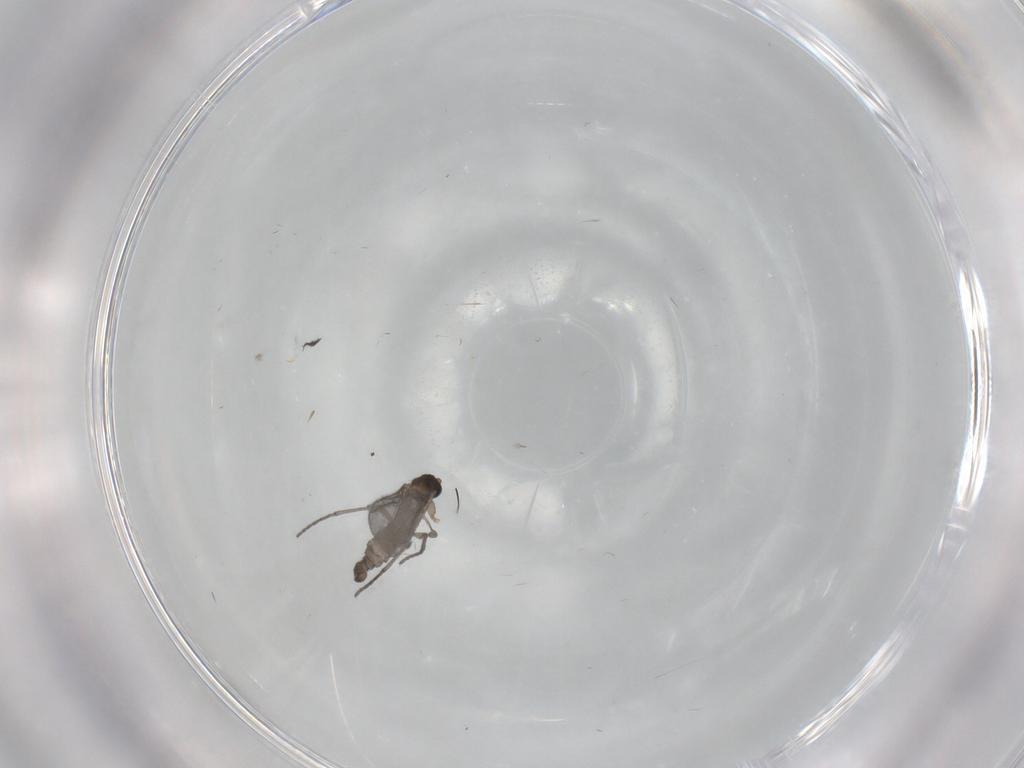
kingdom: Animalia
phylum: Arthropoda
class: Insecta
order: Diptera
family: Sciaridae
